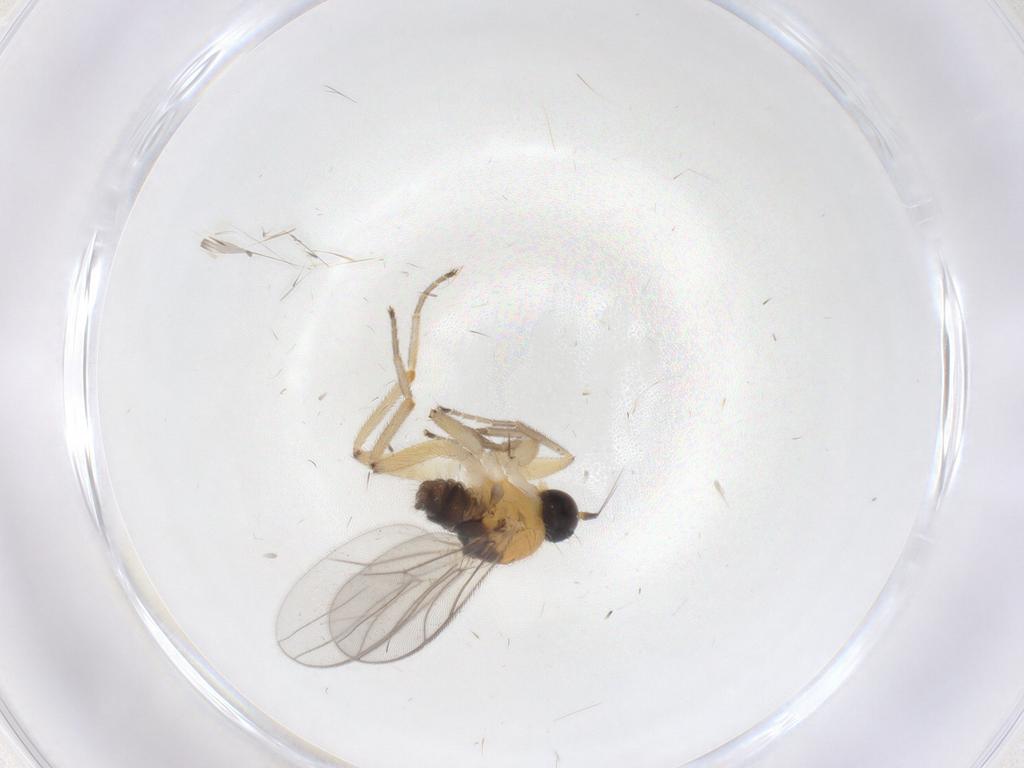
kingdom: Animalia
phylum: Arthropoda
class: Insecta
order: Diptera
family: Hybotidae
